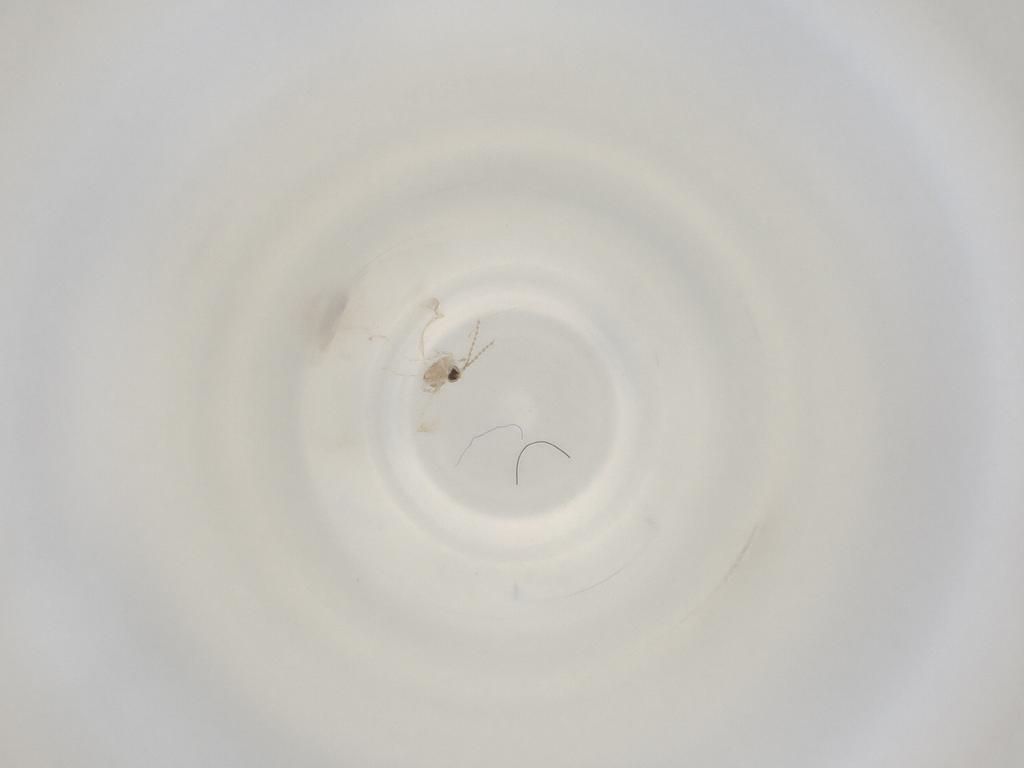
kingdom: Animalia
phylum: Arthropoda
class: Insecta
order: Diptera
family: Cecidomyiidae
